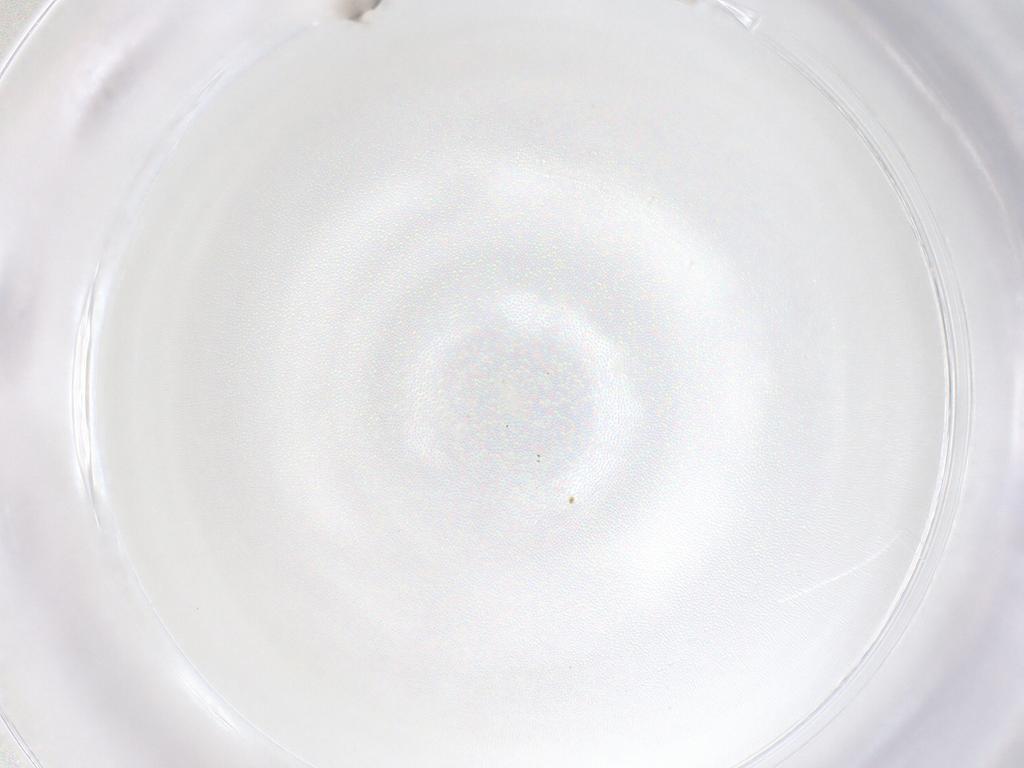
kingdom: Animalia
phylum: Arthropoda
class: Insecta
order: Diptera
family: Cecidomyiidae
